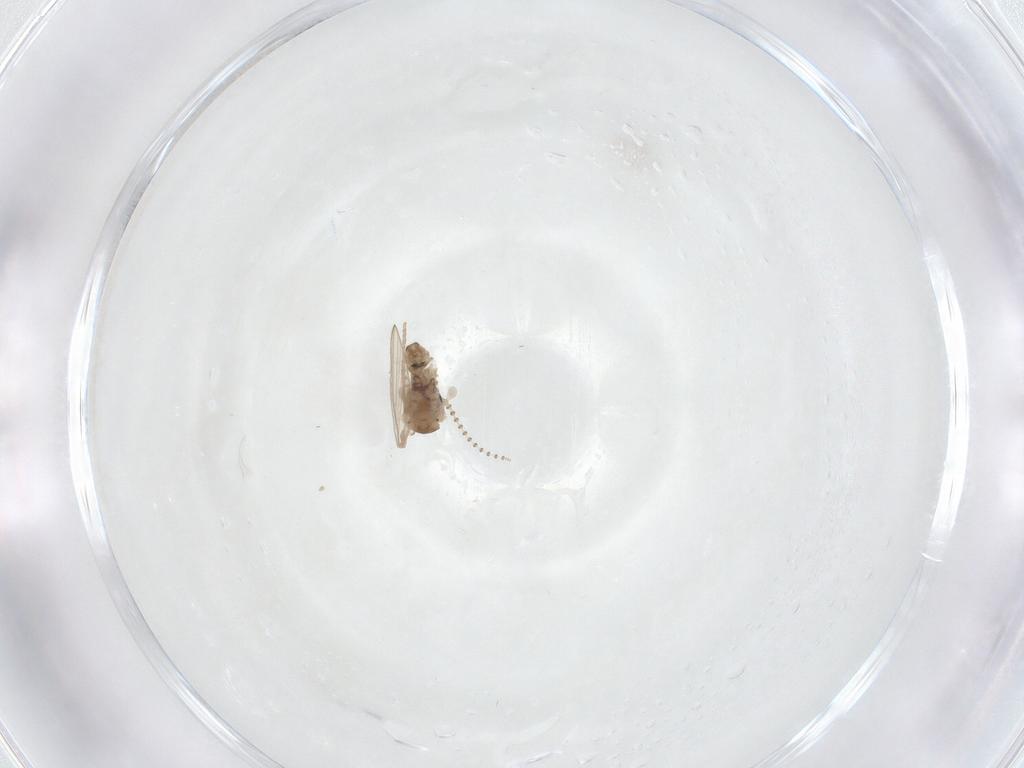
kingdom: Animalia
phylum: Arthropoda
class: Insecta
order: Diptera
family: Psychodidae
